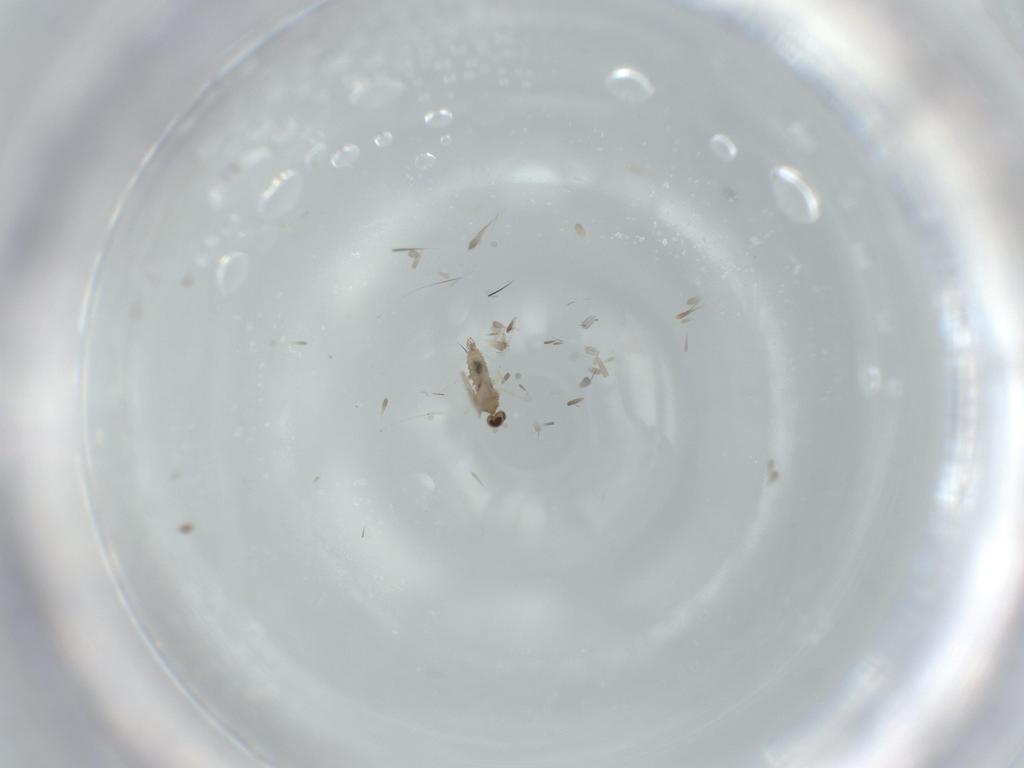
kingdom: Animalia
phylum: Arthropoda
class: Insecta
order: Diptera
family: Cecidomyiidae
